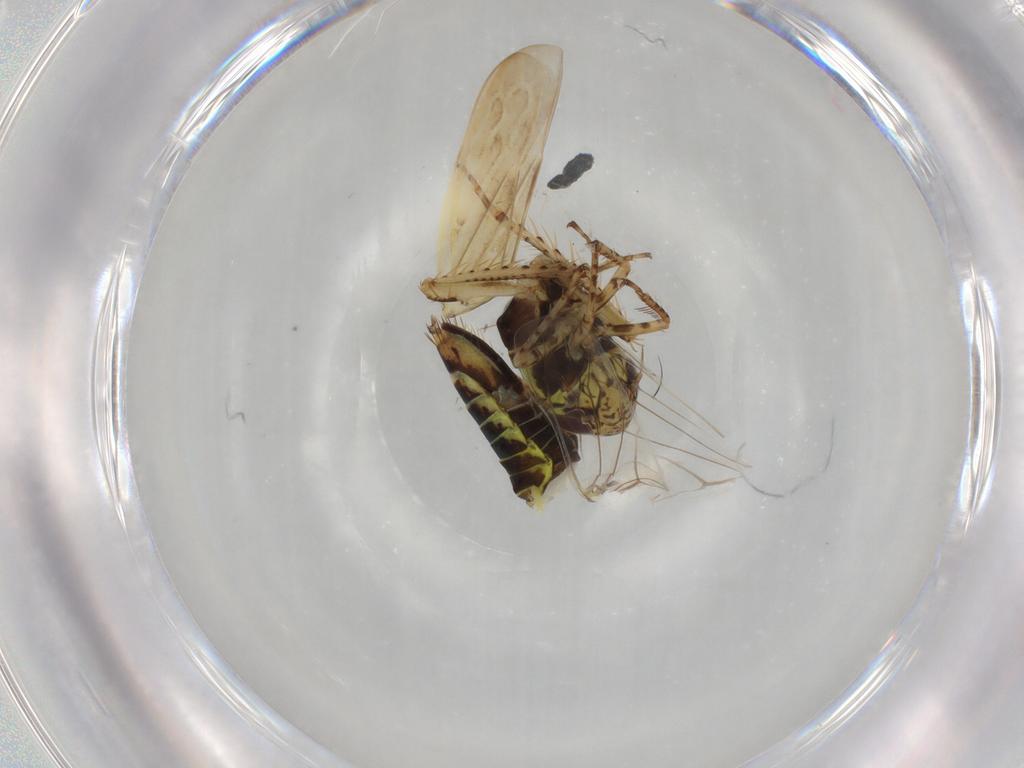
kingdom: Animalia
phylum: Arthropoda
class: Insecta
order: Hemiptera
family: Cicadellidae
